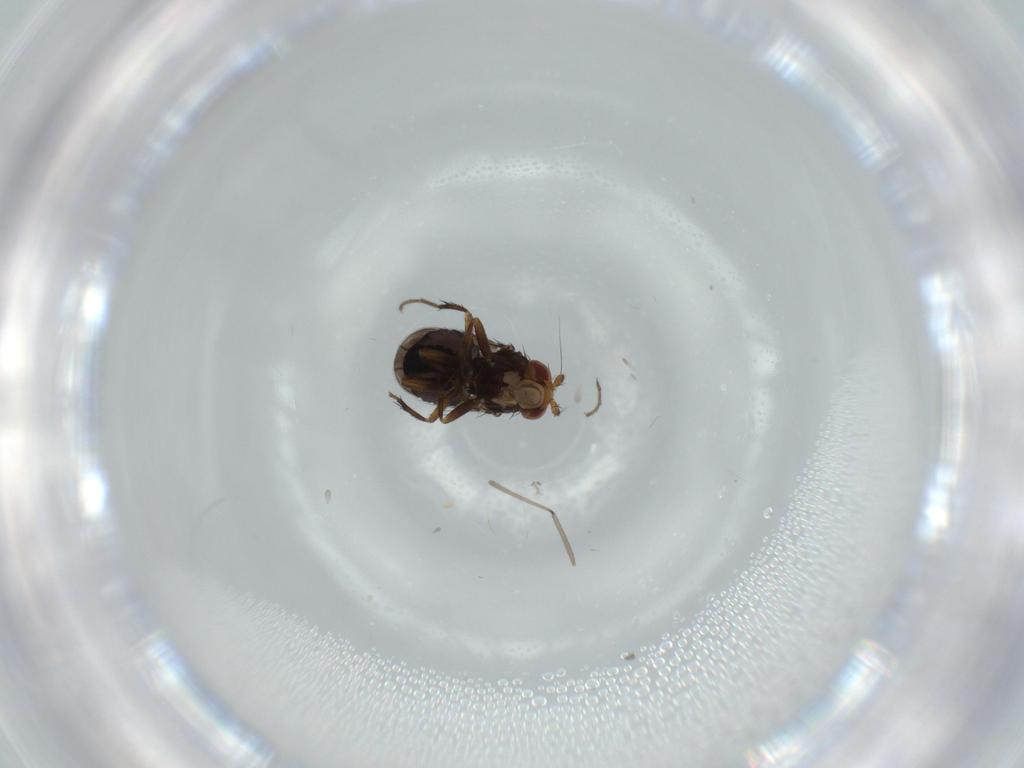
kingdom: Animalia
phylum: Arthropoda
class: Insecta
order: Diptera
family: Sphaeroceridae
